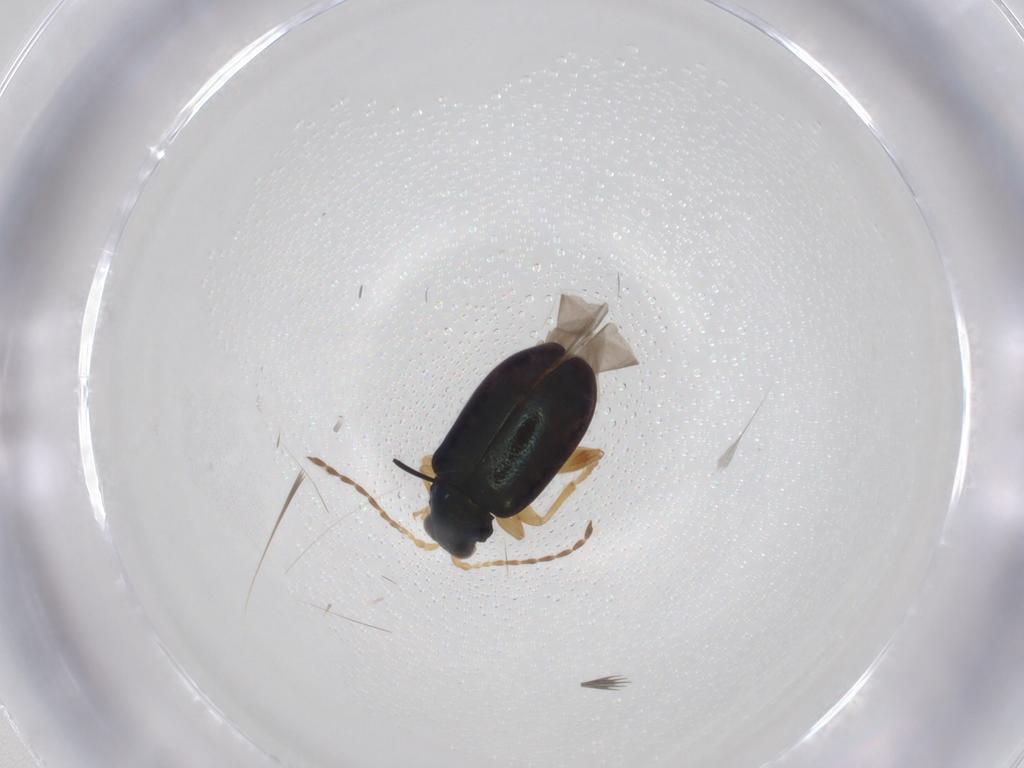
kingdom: Animalia
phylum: Arthropoda
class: Insecta
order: Coleoptera
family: Chrysomelidae
